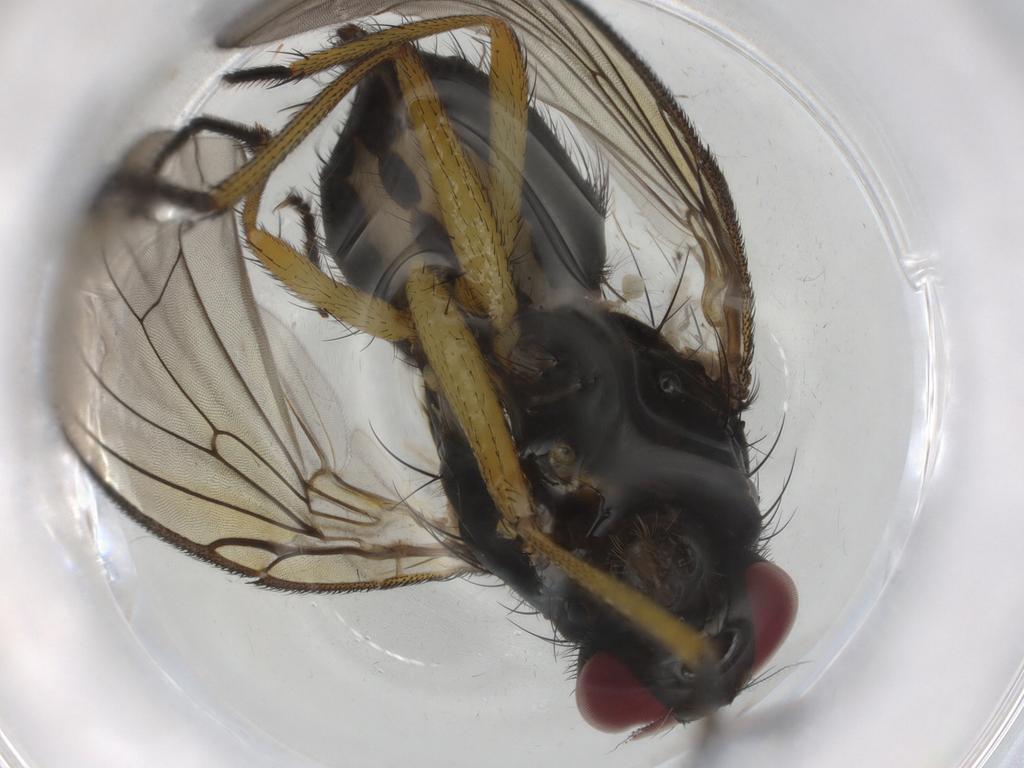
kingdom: Animalia
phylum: Arthropoda
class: Insecta
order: Diptera
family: Muscidae
